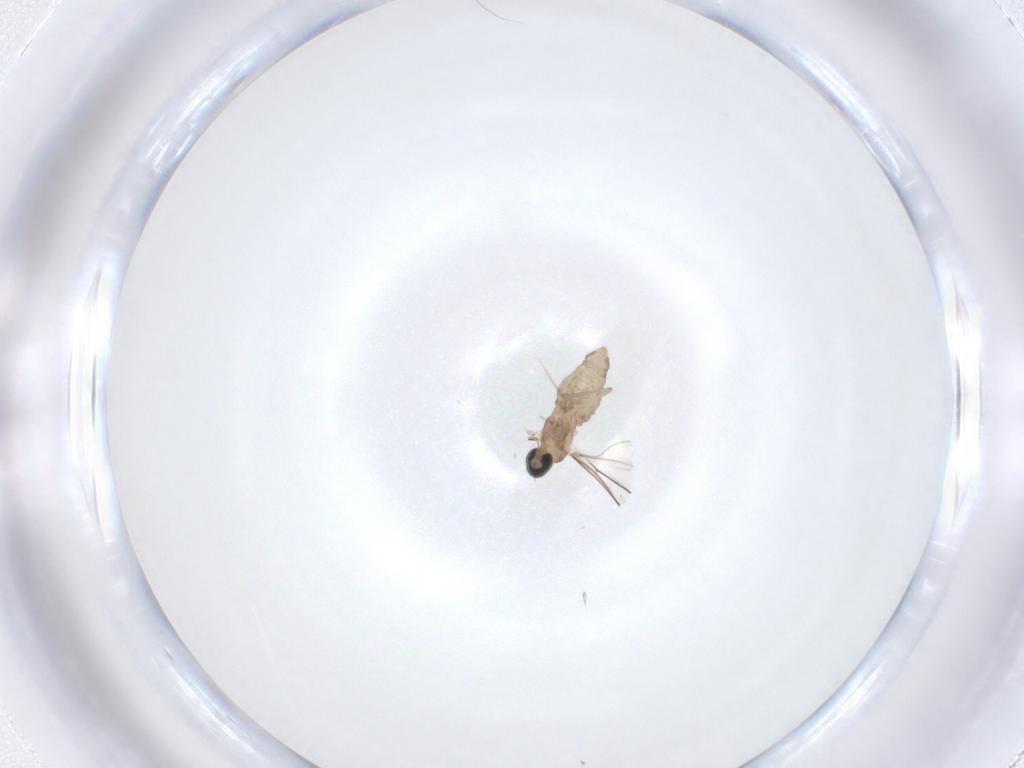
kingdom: Animalia
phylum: Arthropoda
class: Insecta
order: Diptera
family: Cecidomyiidae
